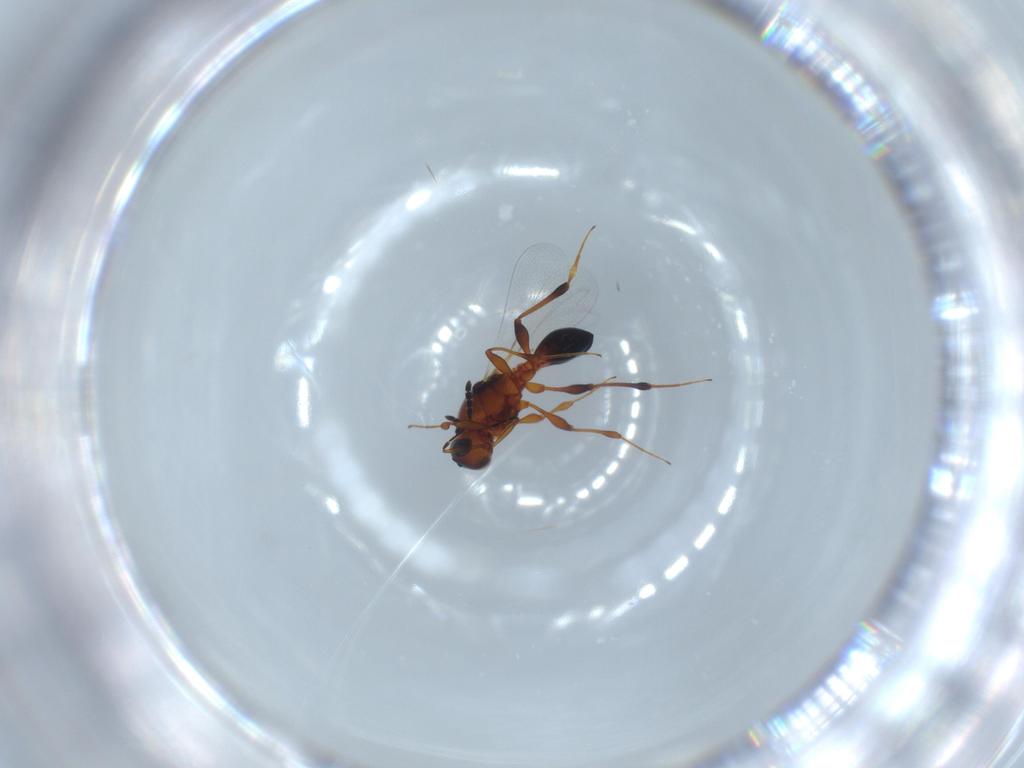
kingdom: Animalia
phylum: Arthropoda
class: Insecta
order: Hymenoptera
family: Platygastridae
